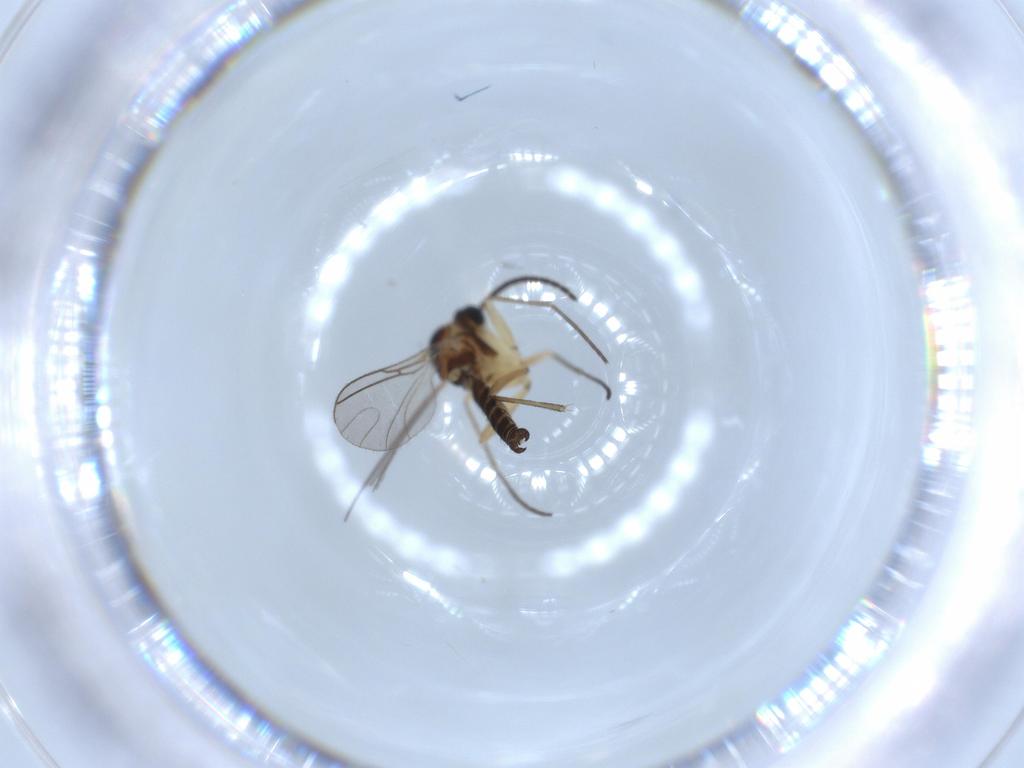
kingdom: Animalia
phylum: Arthropoda
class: Insecta
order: Diptera
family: Sciaridae
